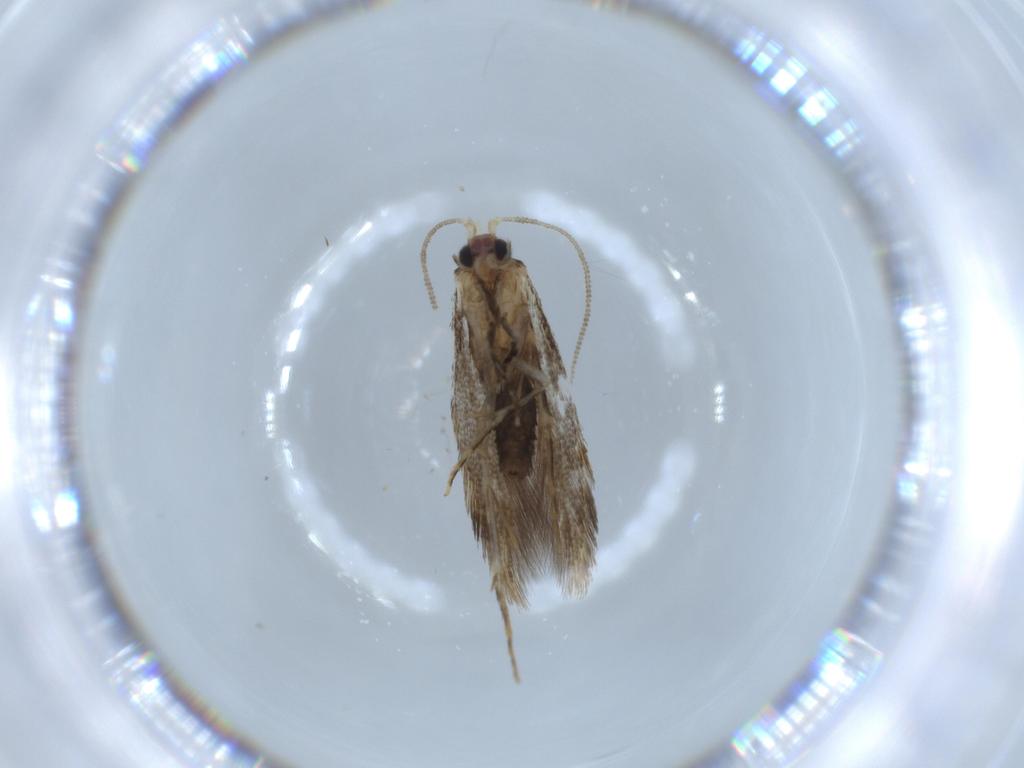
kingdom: Animalia
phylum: Arthropoda
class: Insecta
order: Lepidoptera
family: Tineidae
